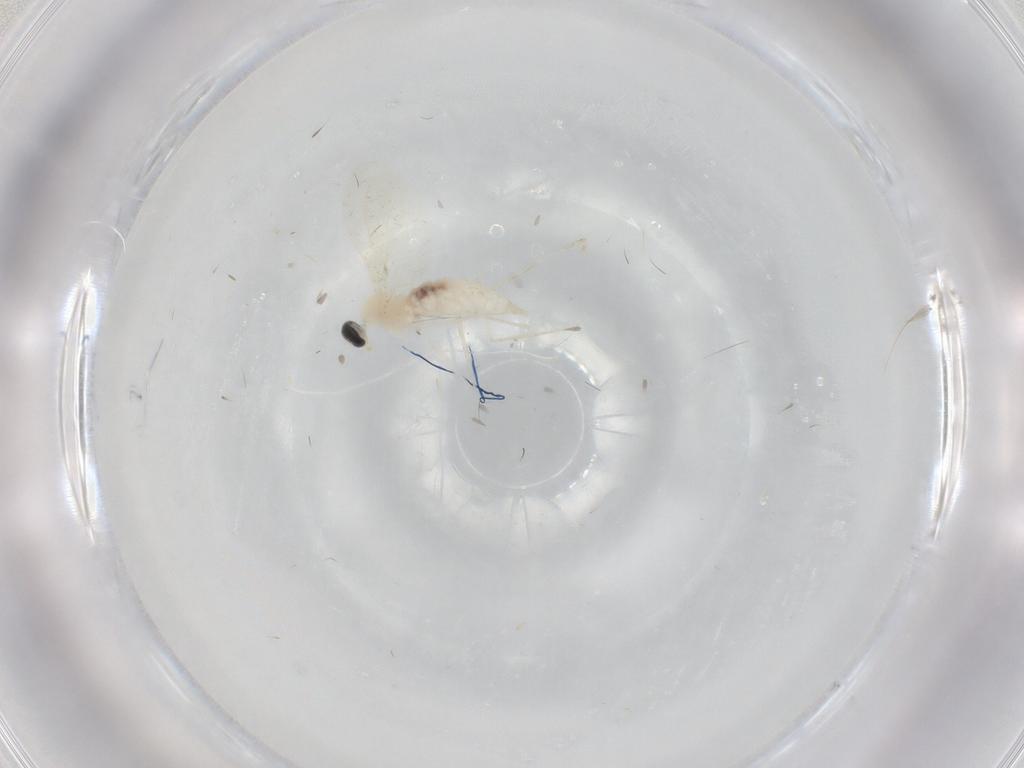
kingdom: Animalia
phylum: Arthropoda
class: Insecta
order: Diptera
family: Cecidomyiidae
